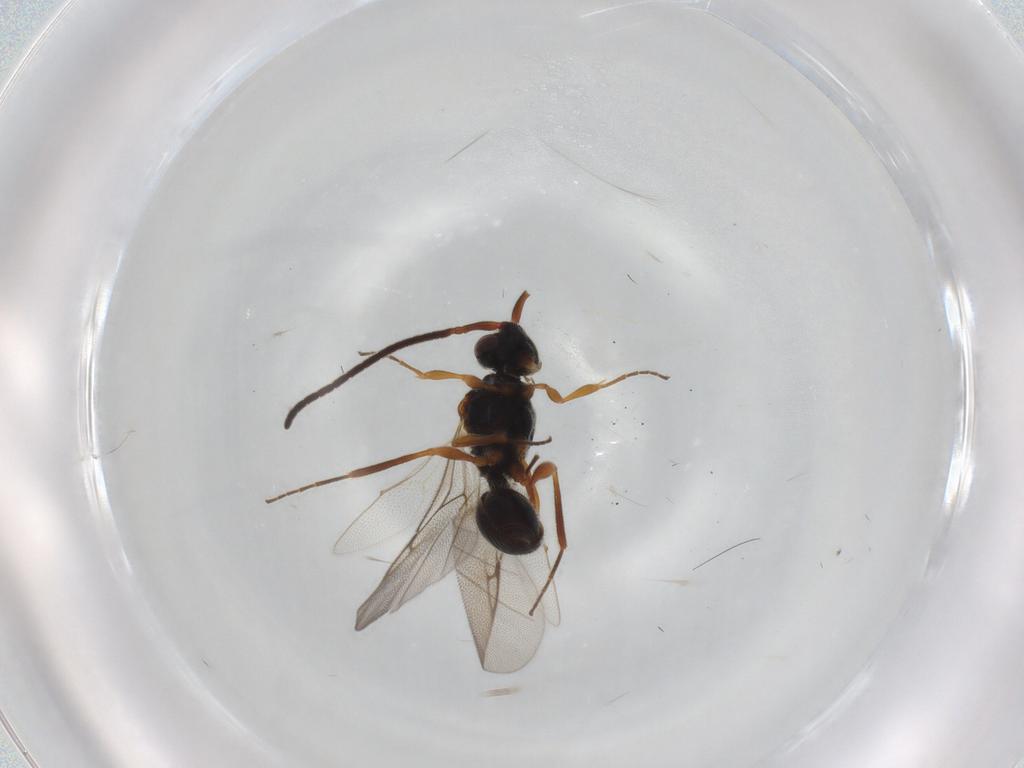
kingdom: Animalia
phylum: Arthropoda
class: Insecta
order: Hymenoptera
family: Diapriidae
